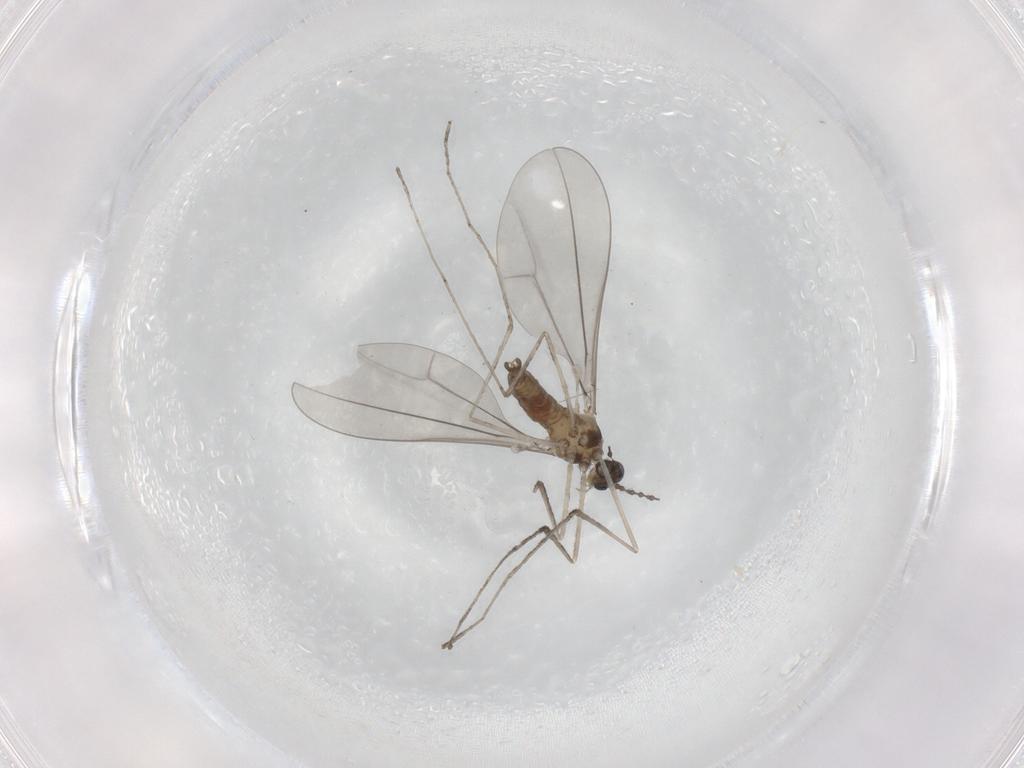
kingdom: Animalia
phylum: Arthropoda
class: Insecta
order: Diptera
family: Cecidomyiidae
